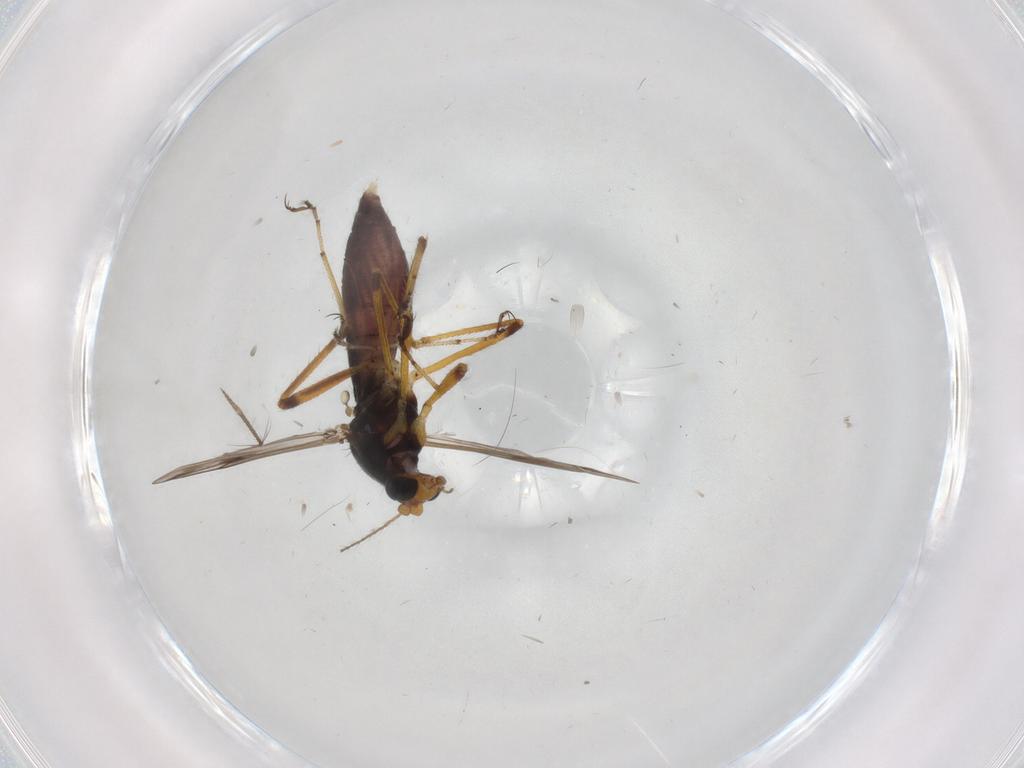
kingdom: Animalia
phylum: Arthropoda
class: Insecta
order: Diptera
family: Ceratopogonidae
